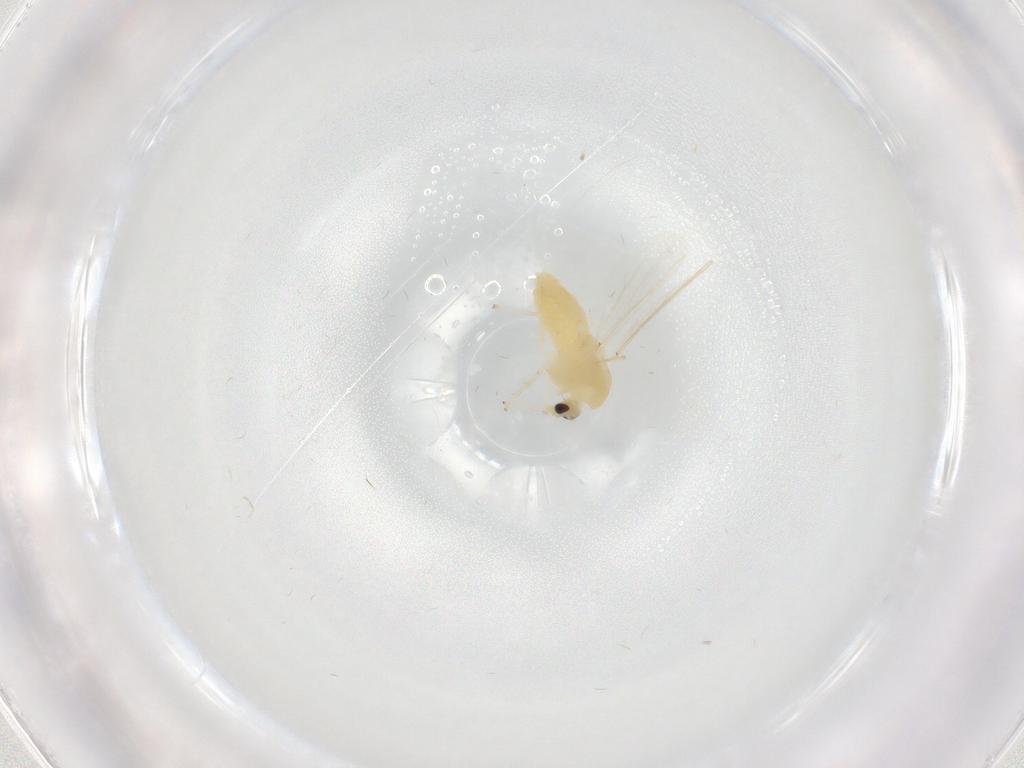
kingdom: Animalia
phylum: Arthropoda
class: Insecta
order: Diptera
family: Chironomidae
